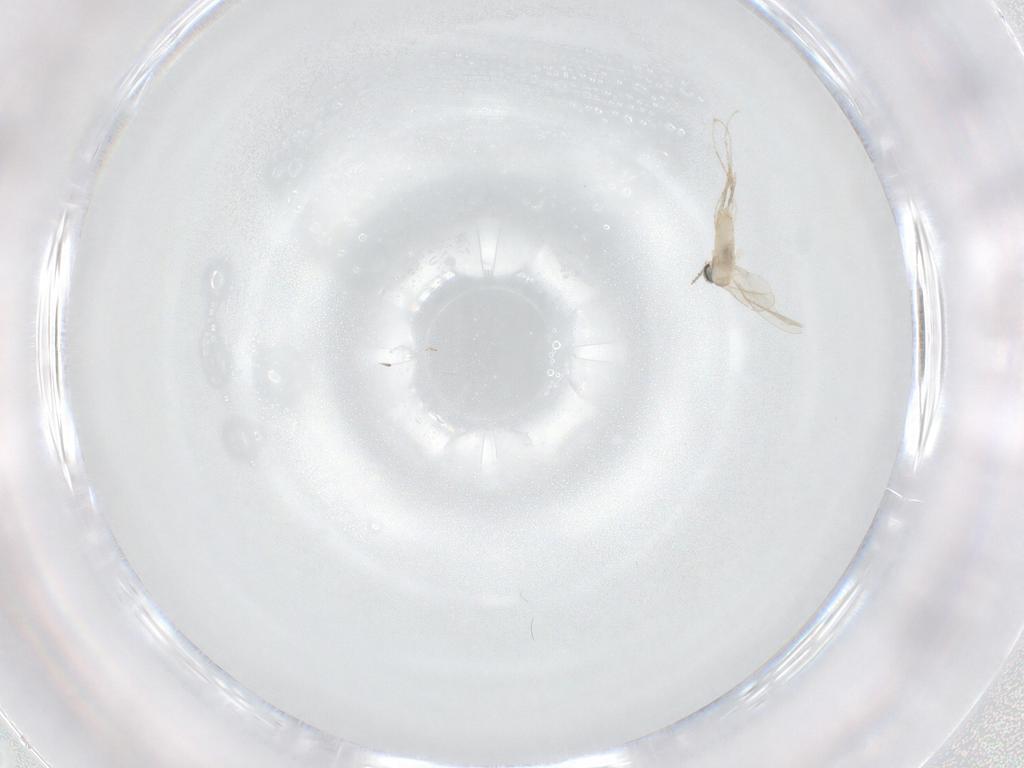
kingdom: Animalia
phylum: Arthropoda
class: Insecta
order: Diptera
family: Cecidomyiidae
